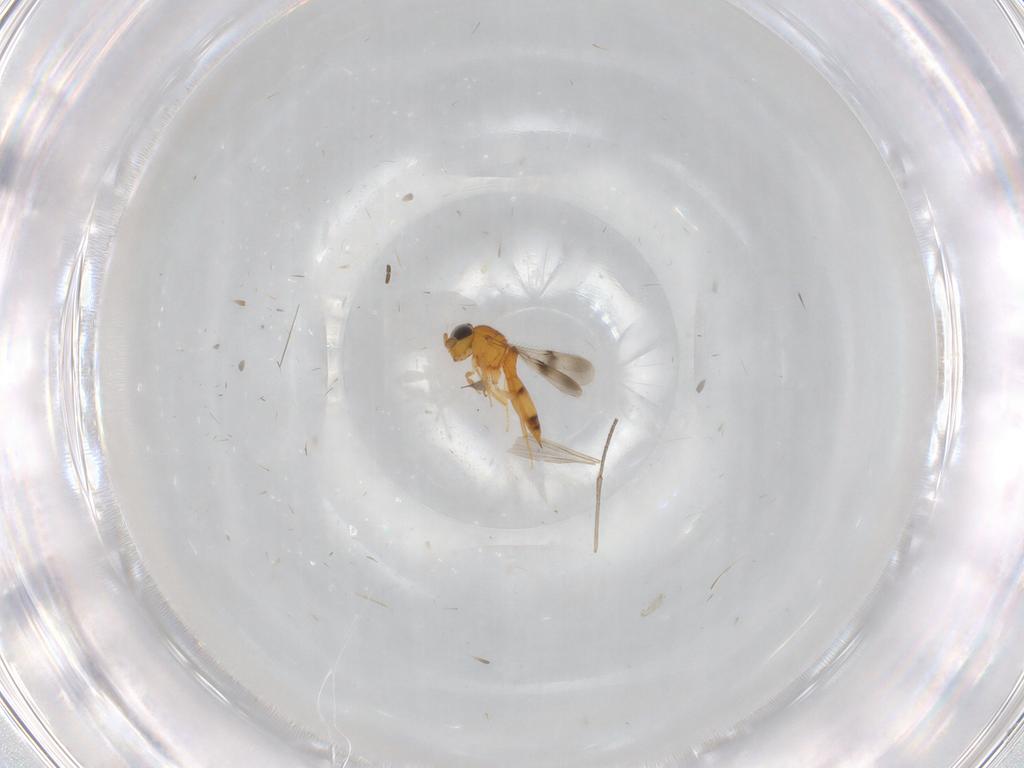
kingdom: Animalia
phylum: Arthropoda
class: Insecta
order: Hymenoptera
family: Scelionidae
